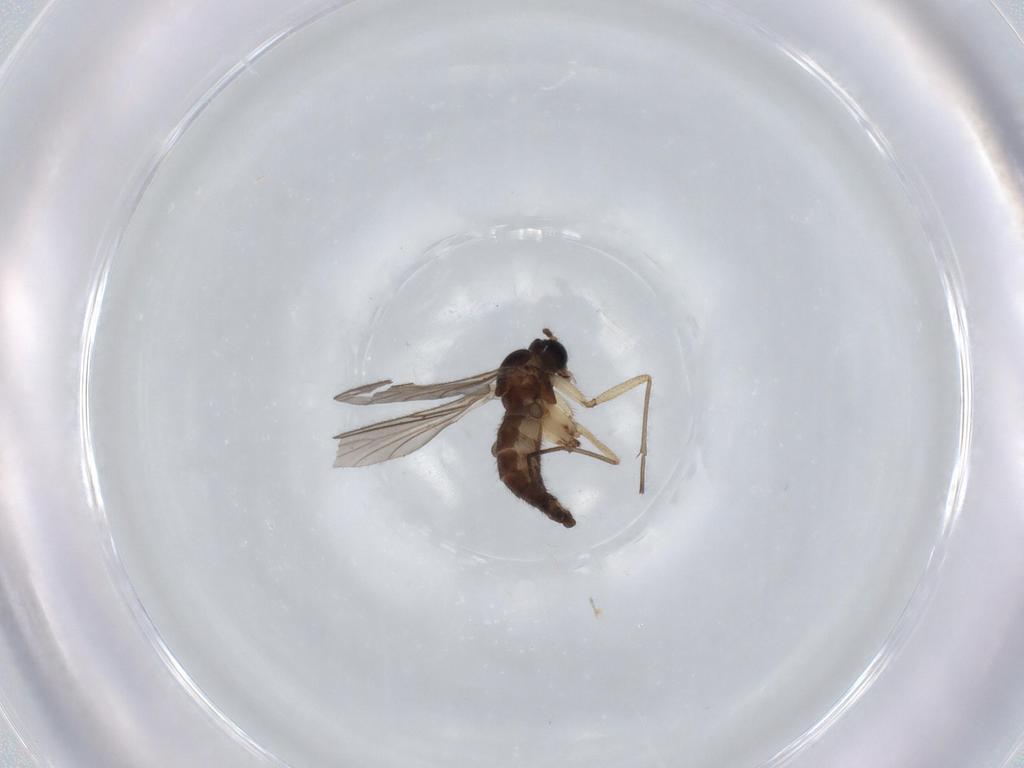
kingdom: Animalia
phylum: Arthropoda
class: Insecta
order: Diptera
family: Sciaridae
